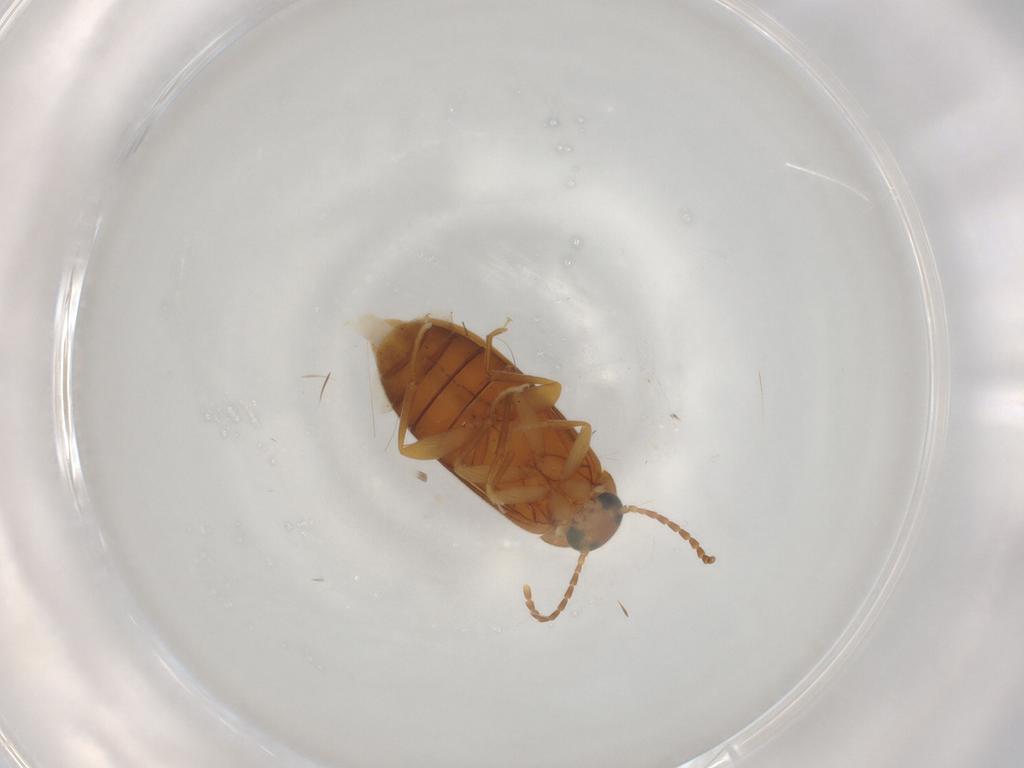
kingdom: Animalia
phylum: Arthropoda
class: Insecta
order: Coleoptera
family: Scraptiidae
